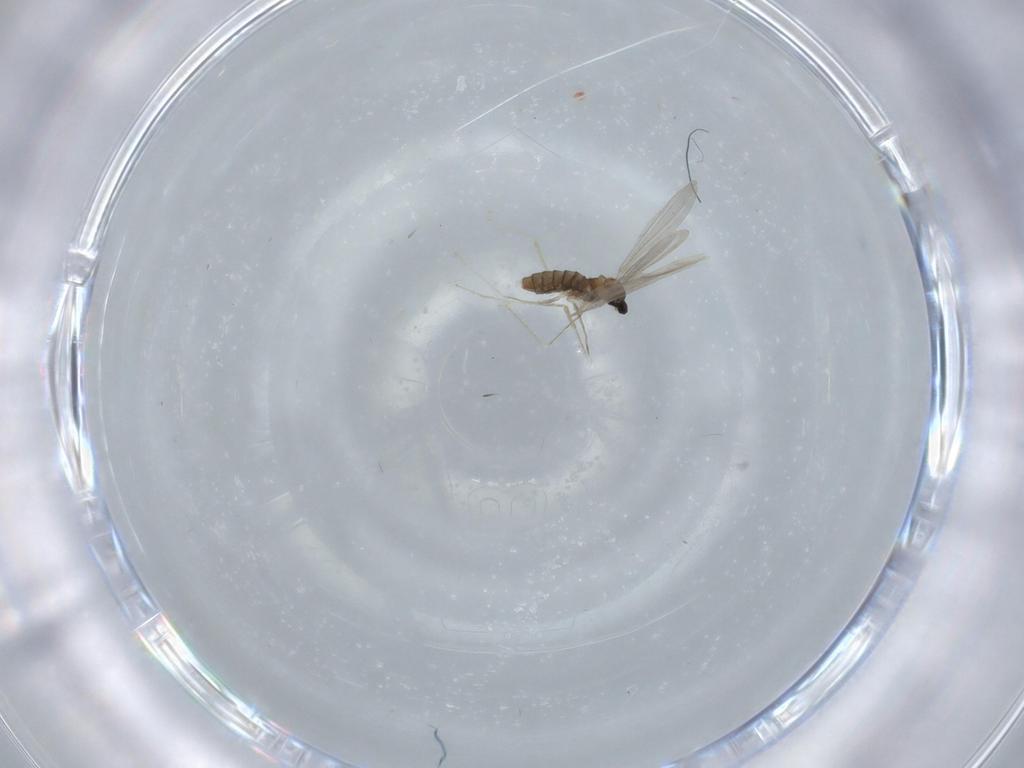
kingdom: Animalia
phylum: Arthropoda
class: Insecta
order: Diptera
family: Cecidomyiidae
